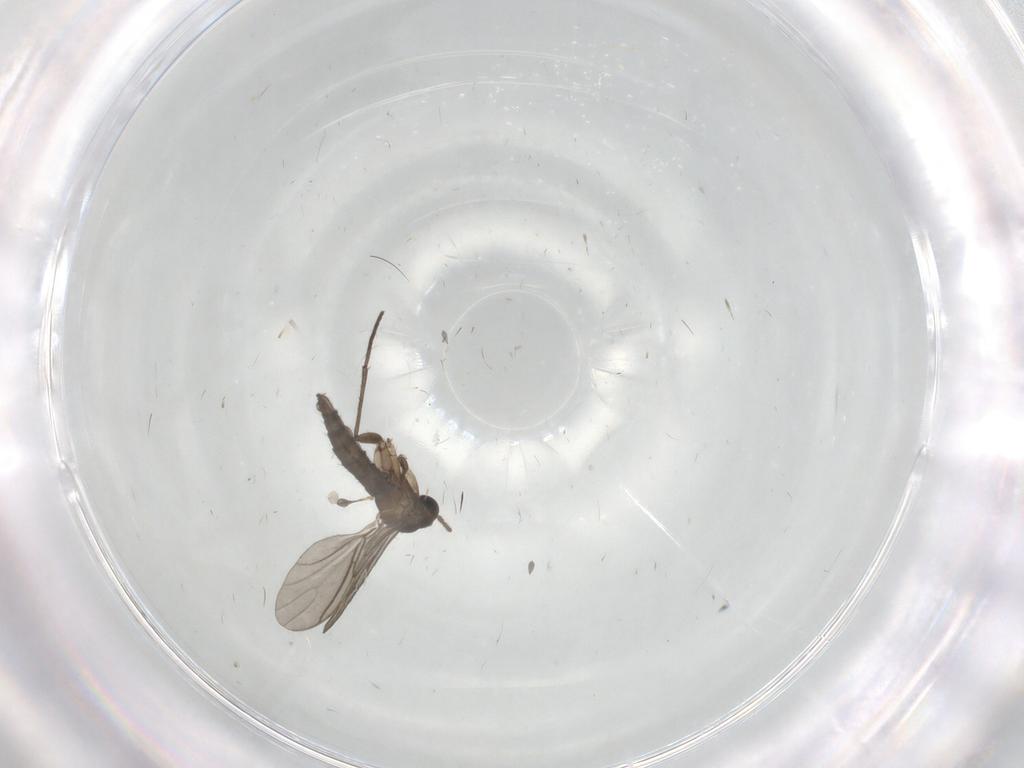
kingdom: Animalia
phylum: Arthropoda
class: Insecta
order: Diptera
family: Sciaridae
